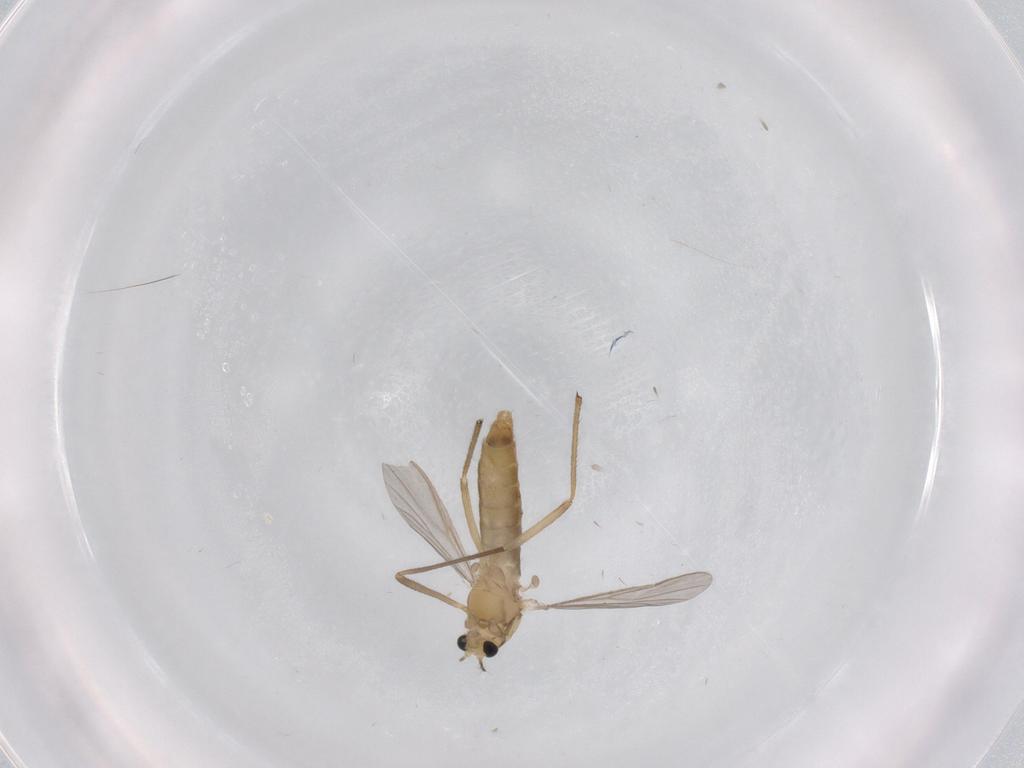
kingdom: Animalia
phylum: Arthropoda
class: Insecta
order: Diptera
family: Chironomidae
